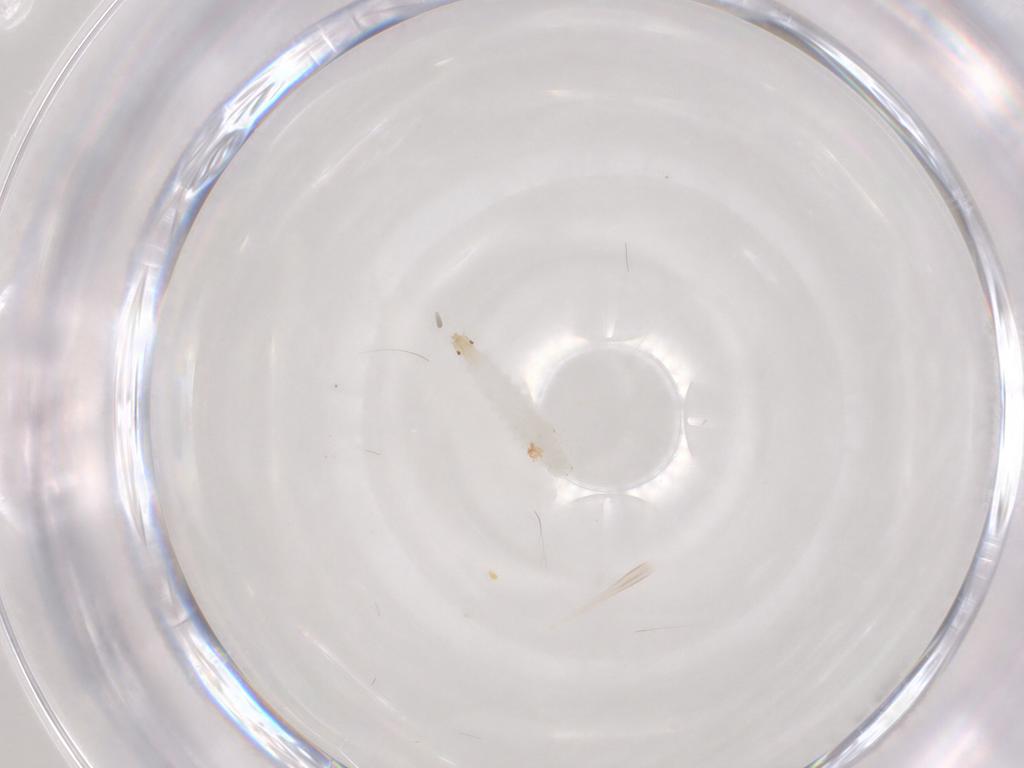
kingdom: Animalia
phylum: Arthropoda
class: Insecta
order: Diptera
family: Cecidomyiidae
